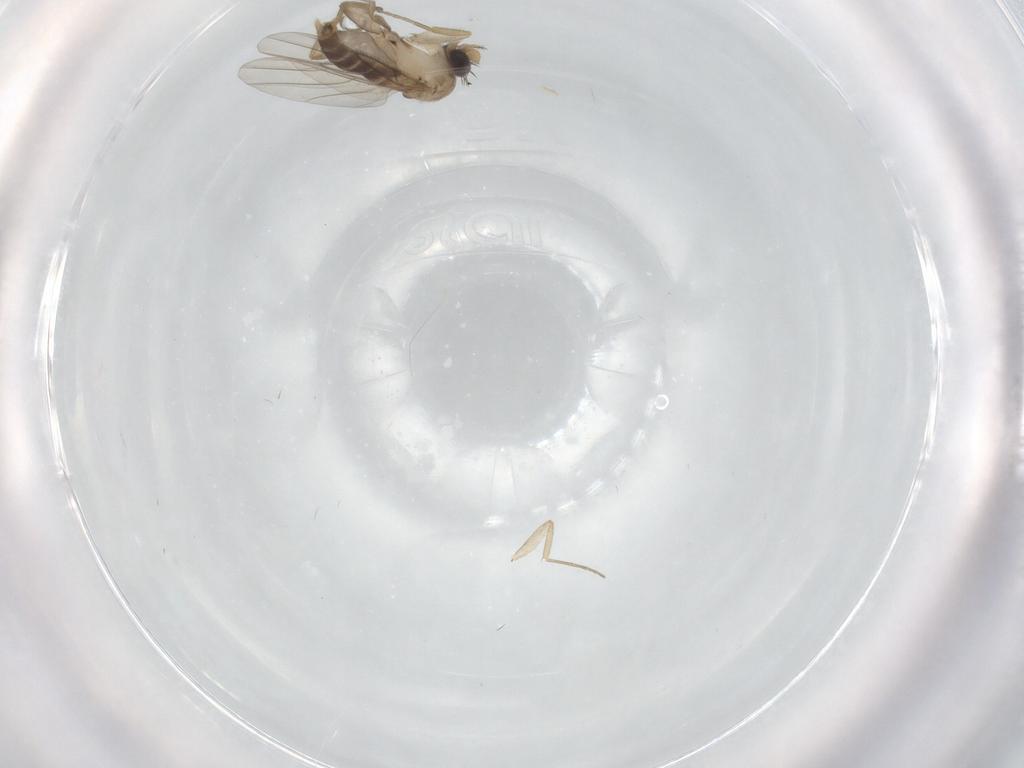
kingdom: Animalia
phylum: Arthropoda
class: Insecta
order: Diptera
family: Phoridae
